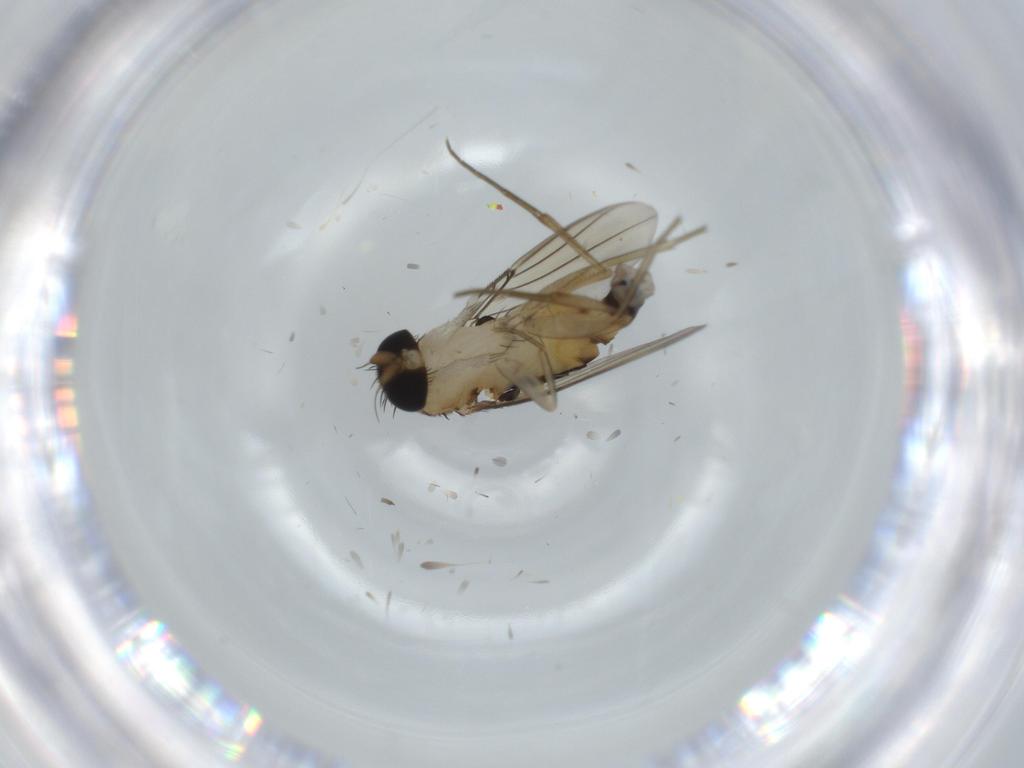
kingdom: Animalia
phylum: Arthropoda
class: Insecta
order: Diptera
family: Phoridae
